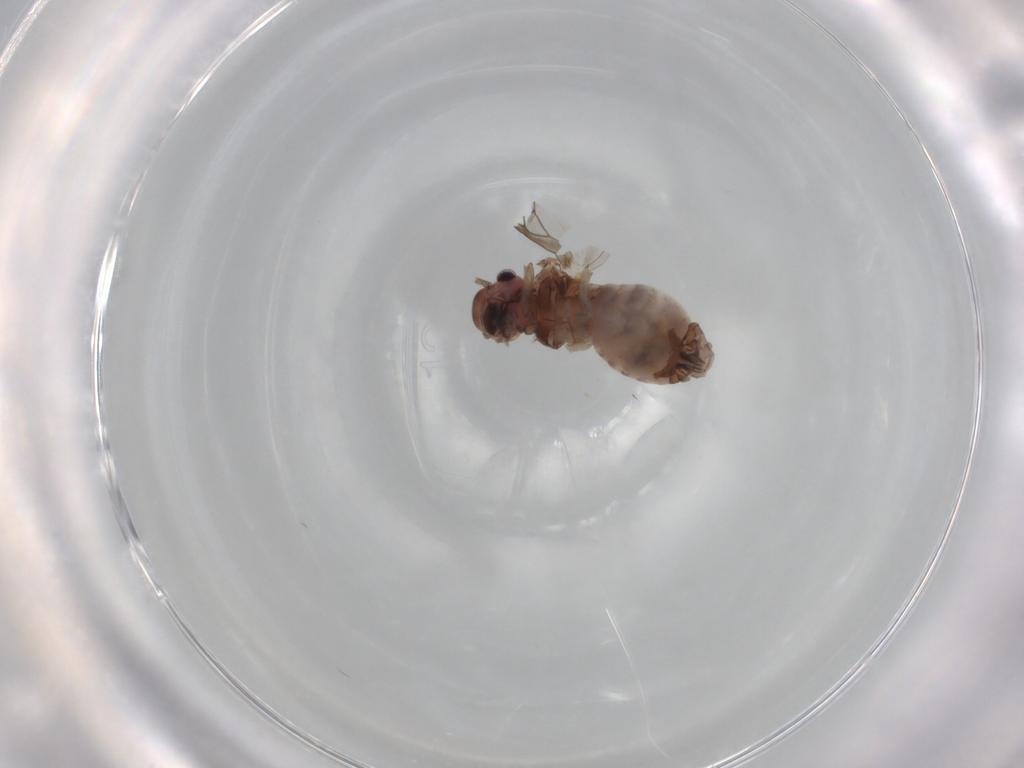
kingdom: Animalia
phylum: Arthropoda
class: Insecta
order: Psocodea
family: Peripsocidae
